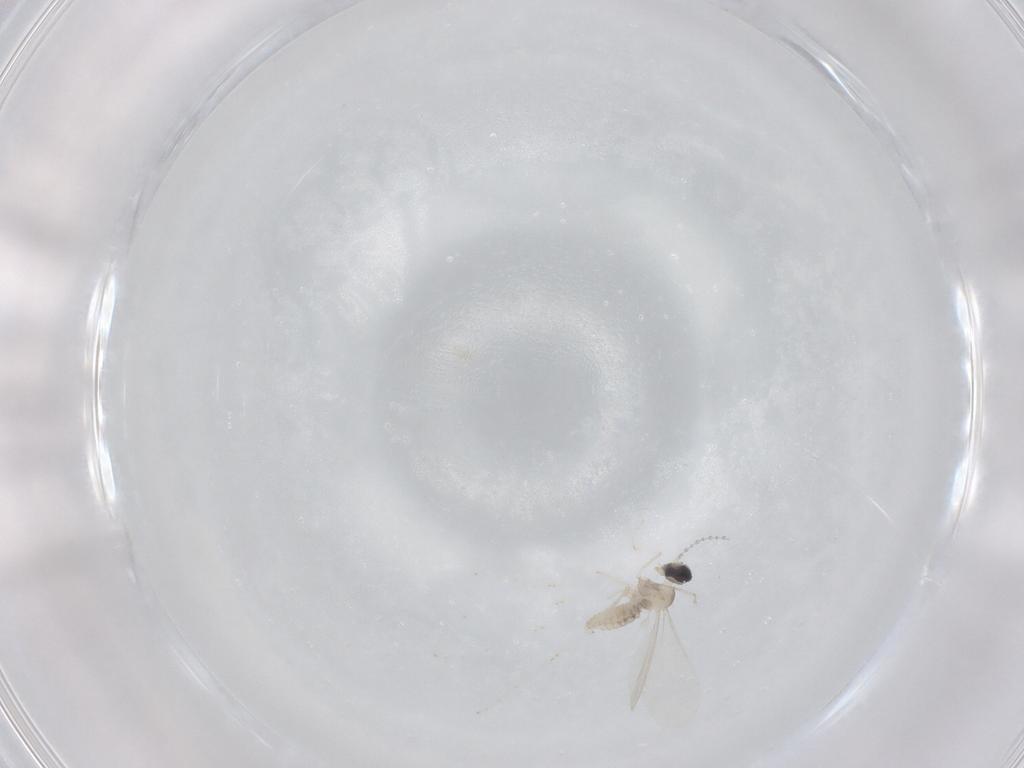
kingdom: Animalia
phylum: Arthropoda
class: Insecta
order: Diptera
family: Cecidomyiidae
